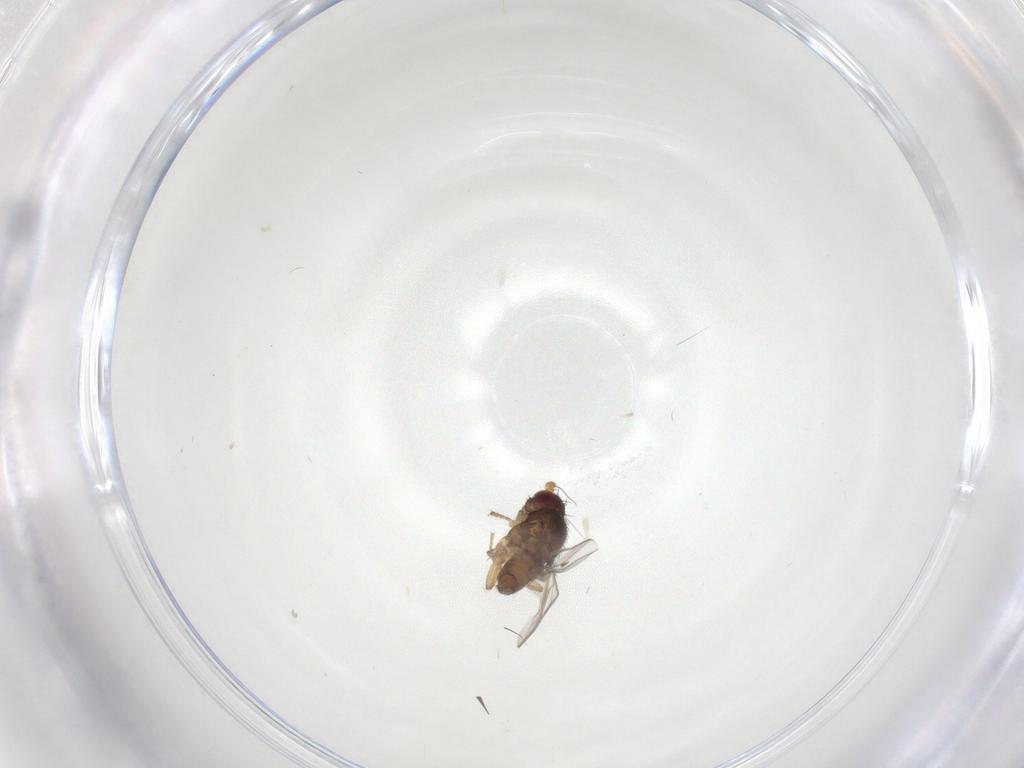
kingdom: Animalia
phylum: Arthropoda
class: Insecta
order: Diptera
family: Sphaeroceridae
